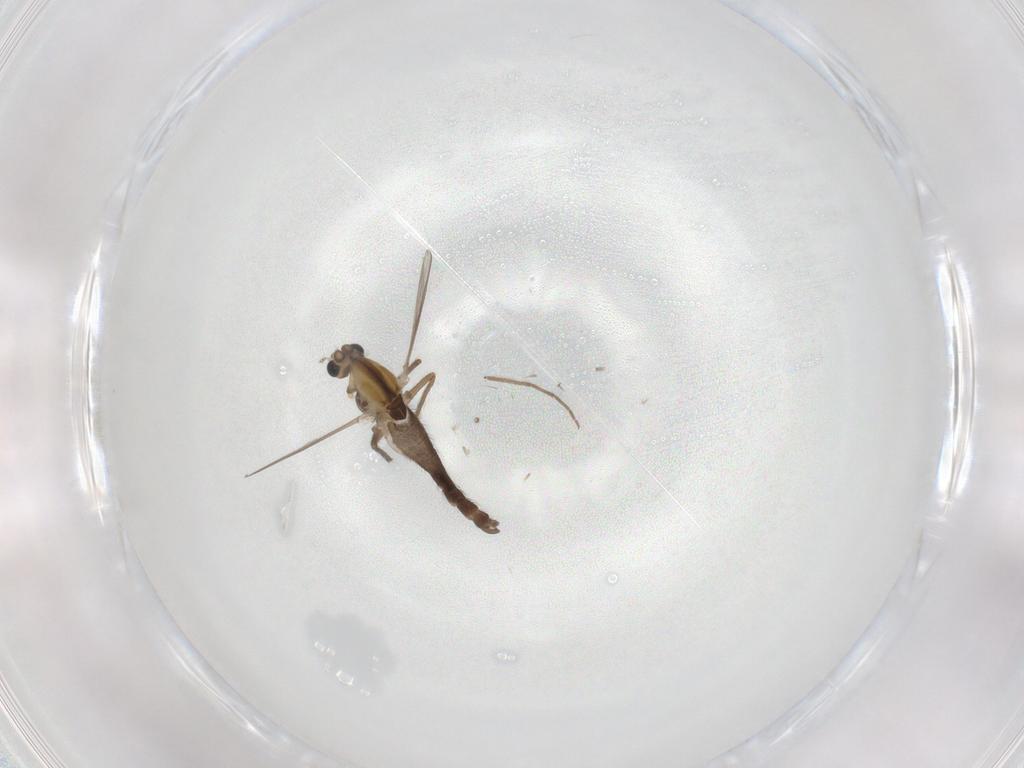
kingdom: Animalia
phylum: Arthropoda
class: Insecta
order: Diptera
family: Chironomidae
